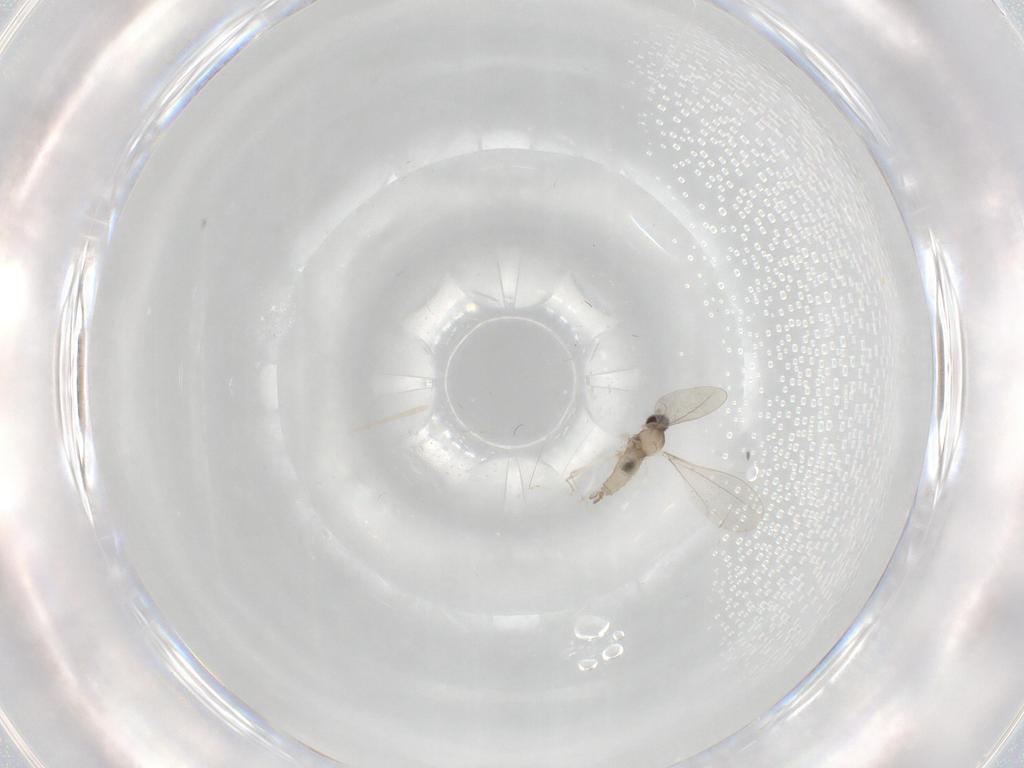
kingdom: Animalia
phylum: Arthropoda
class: Insecta
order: Diptera
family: Cecidomyiidae
